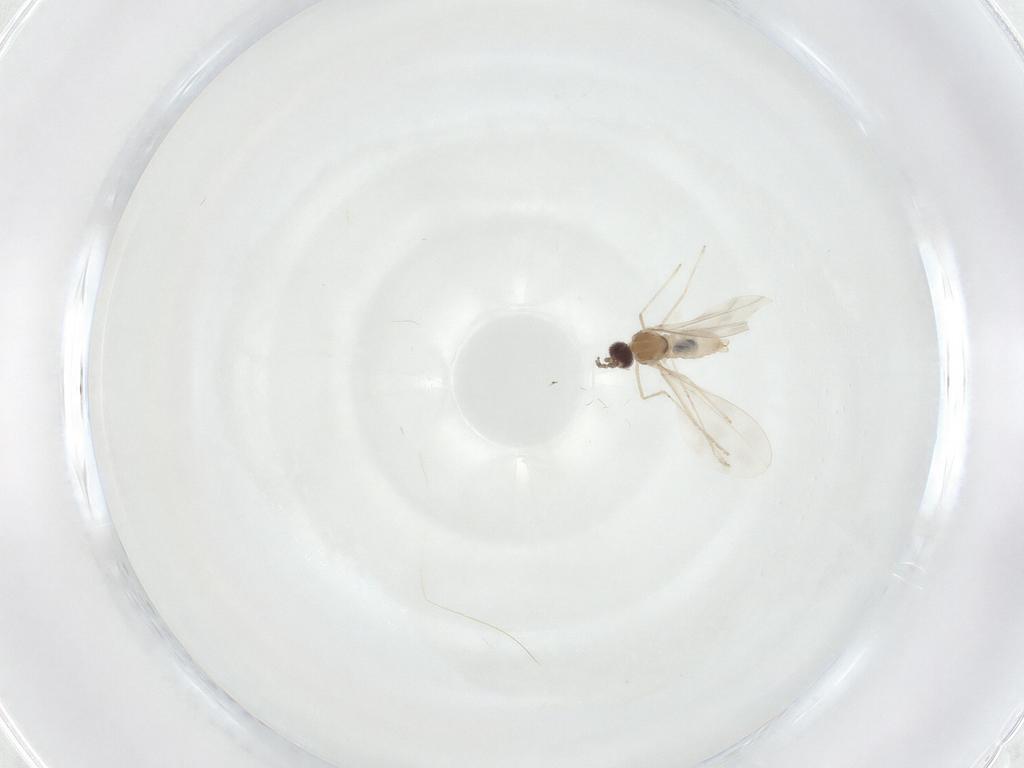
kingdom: Animalia
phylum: Arthropoda
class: Insecta
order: Diptera
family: Cecidomyiidae
